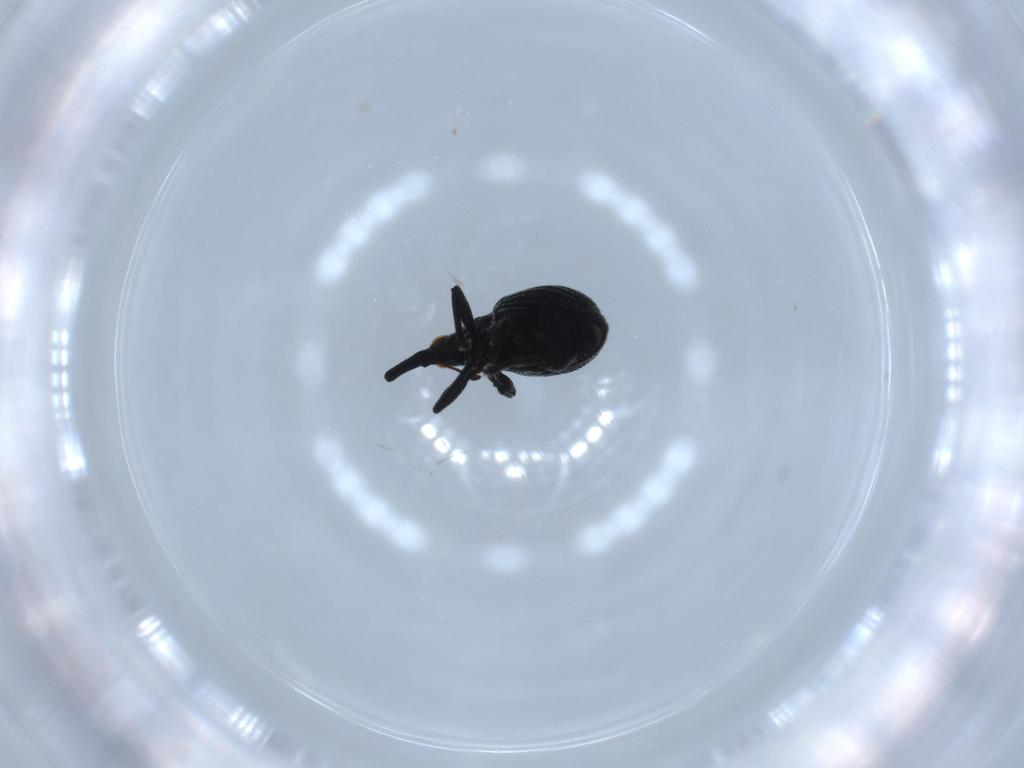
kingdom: Animalia
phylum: Arthropoda
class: Insecta
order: Coleoptera
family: Brentidae
